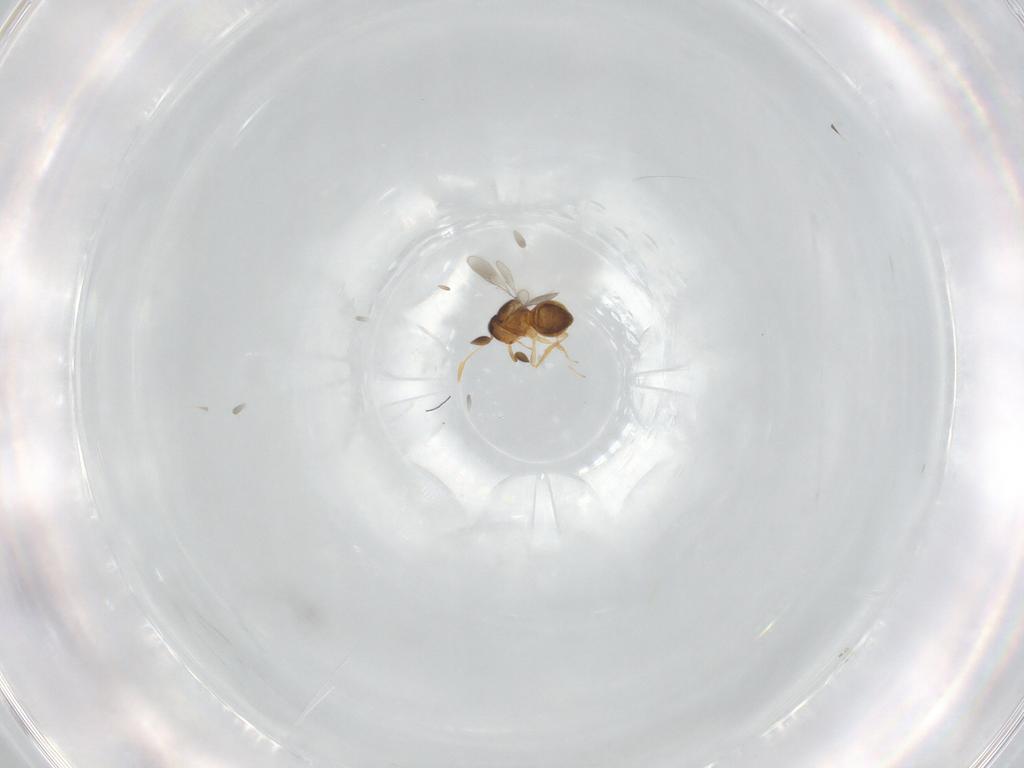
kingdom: Animalia
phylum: Arthropoda
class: Insecta
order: Hymenoptera
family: Scelionidae
